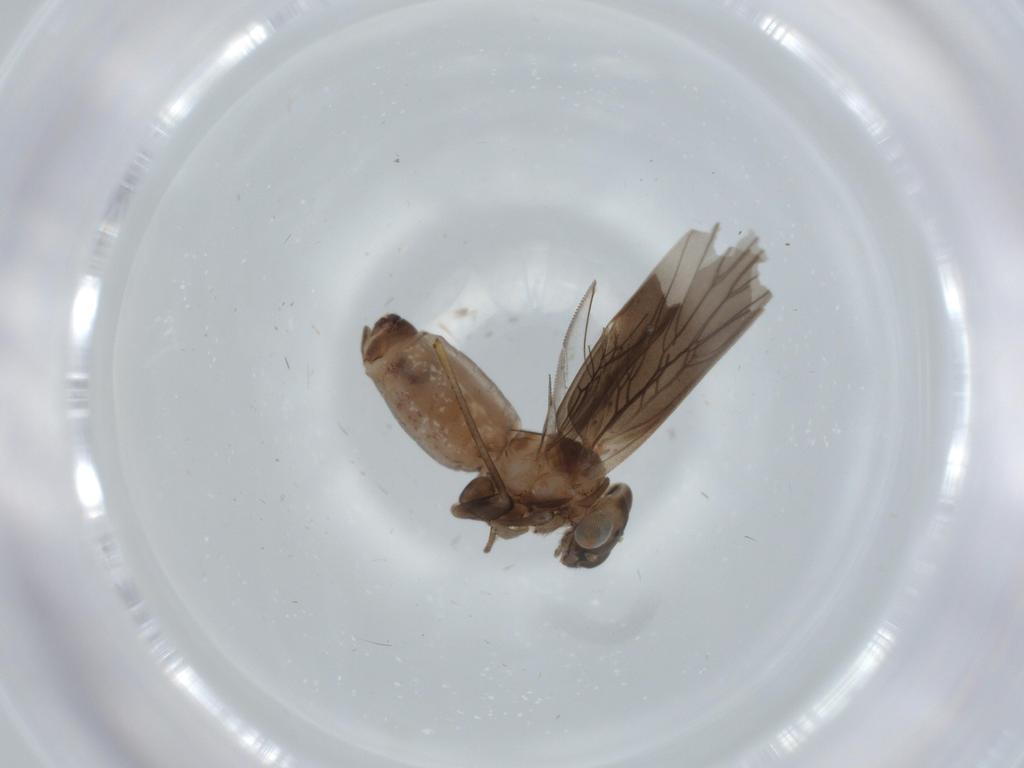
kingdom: Animalia
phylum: Arthropoda
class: Insecta
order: Psocodea
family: Lepidopsocidae
